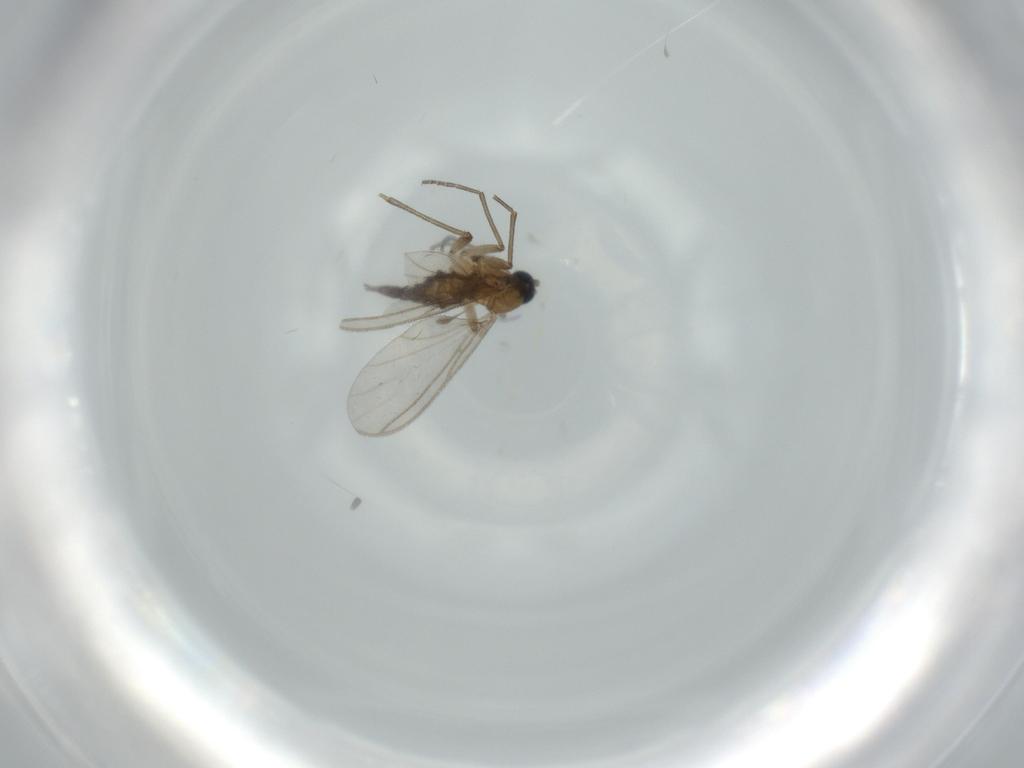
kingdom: Animalia
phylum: Arthropoda
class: Insecta
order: Diptera
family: Sciaridae
